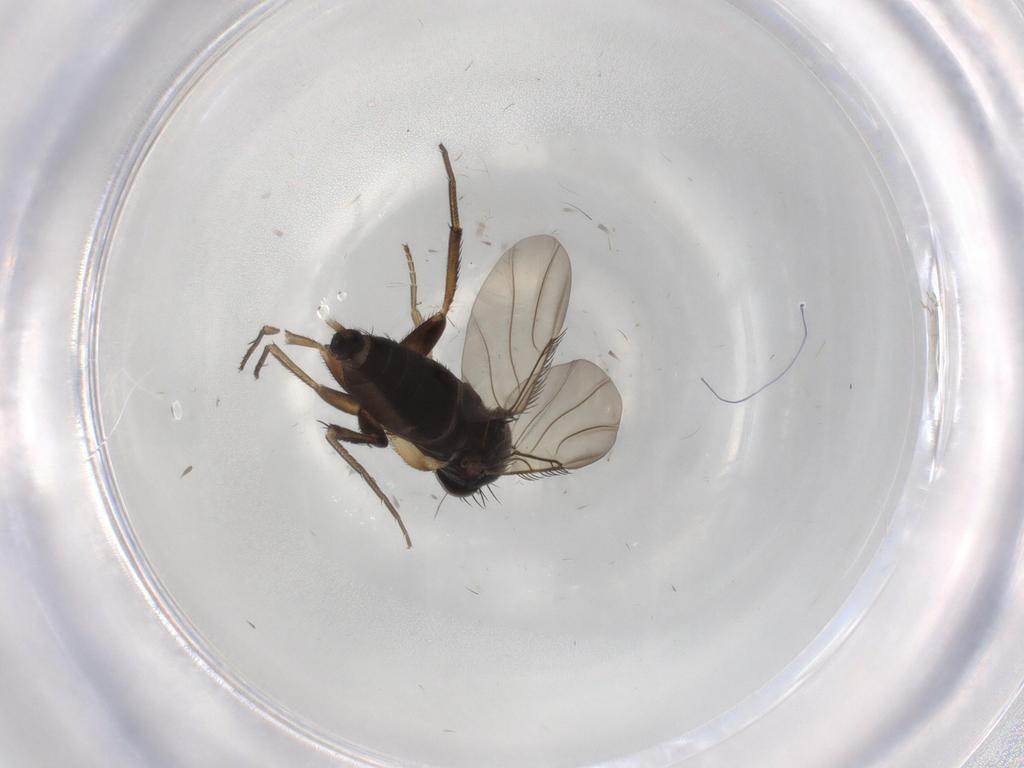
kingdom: Animalia
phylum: Arthropoda
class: Insecta
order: Diptera
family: Phoridae
